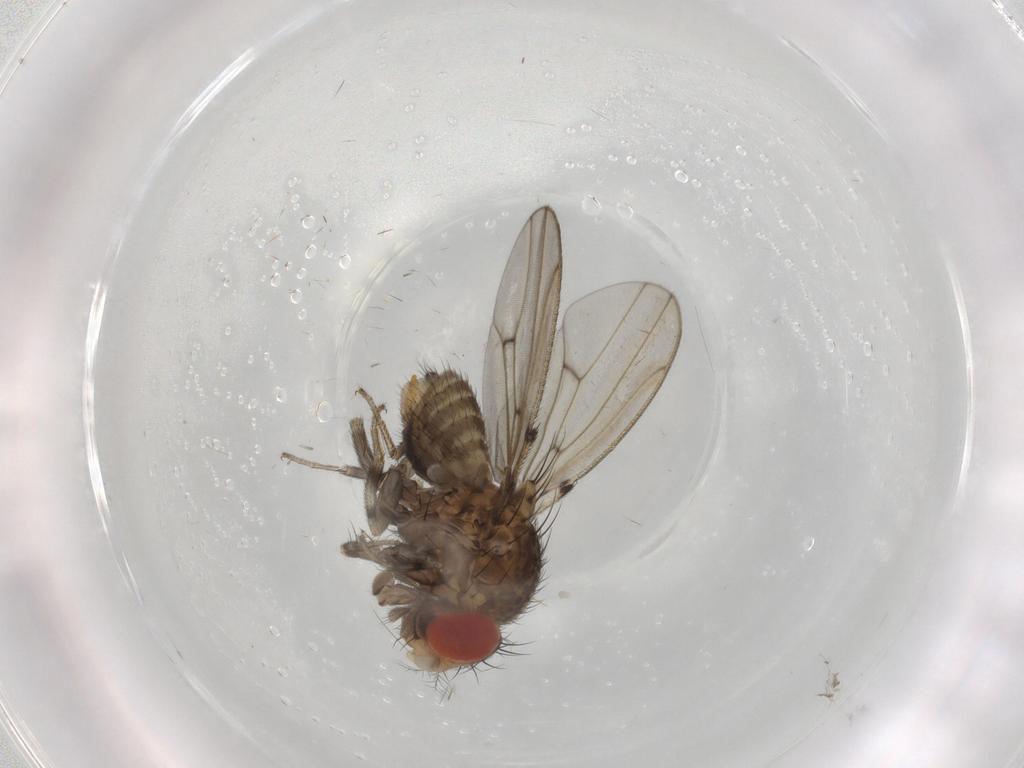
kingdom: Animalia
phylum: Arthropoda
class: Insecta
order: Diptera
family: Drosophilidae
